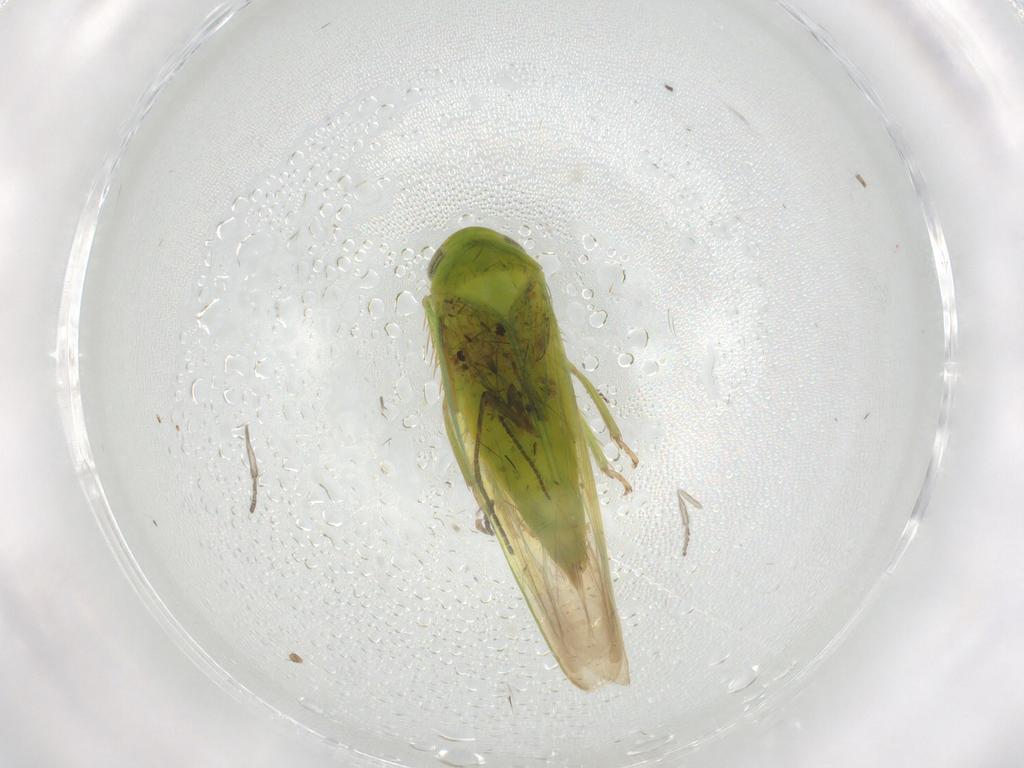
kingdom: Animalia
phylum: Arthropoda
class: Insecta
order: Hemiptera
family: Cicadellidae
